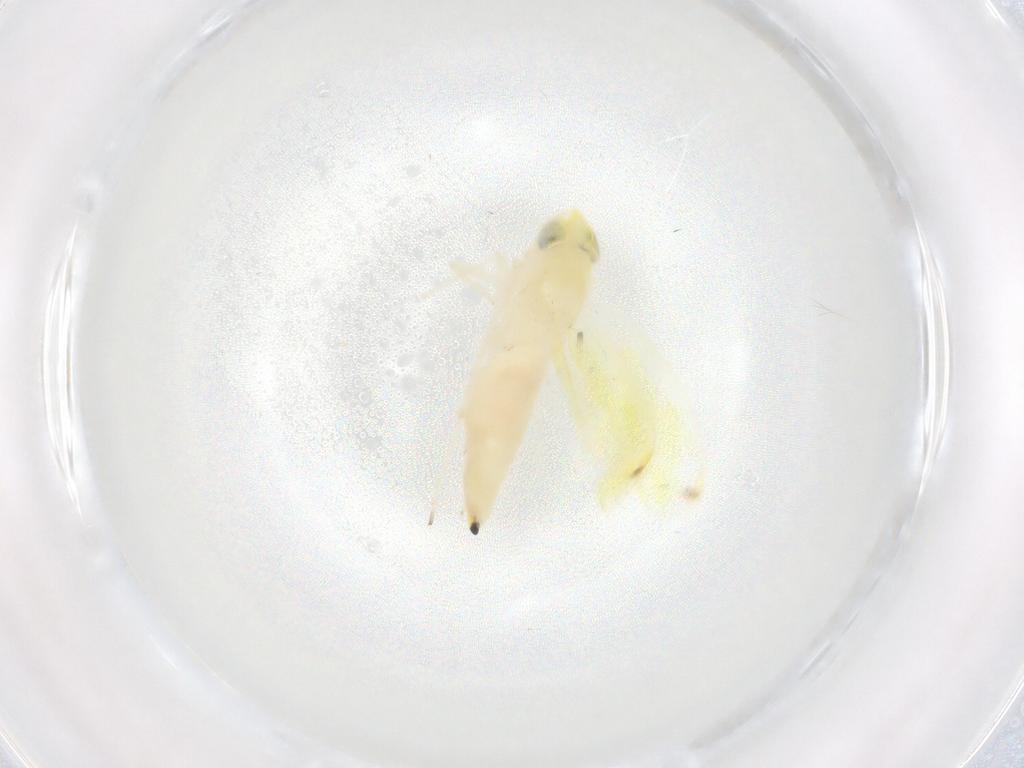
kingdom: Animalia
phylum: Arthropoda
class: Insecta
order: Hemiptera
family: Cicadellidae
